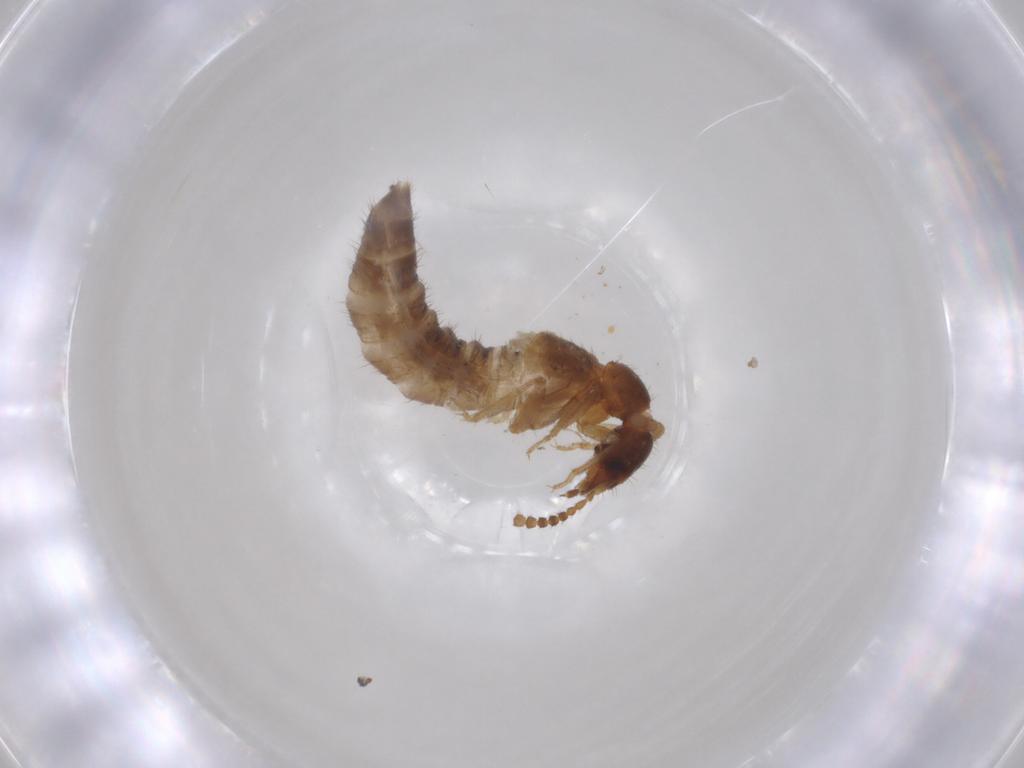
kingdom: Animalia
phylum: Arthropoda
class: Insecta
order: Coleoptera
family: Staphylinidae
